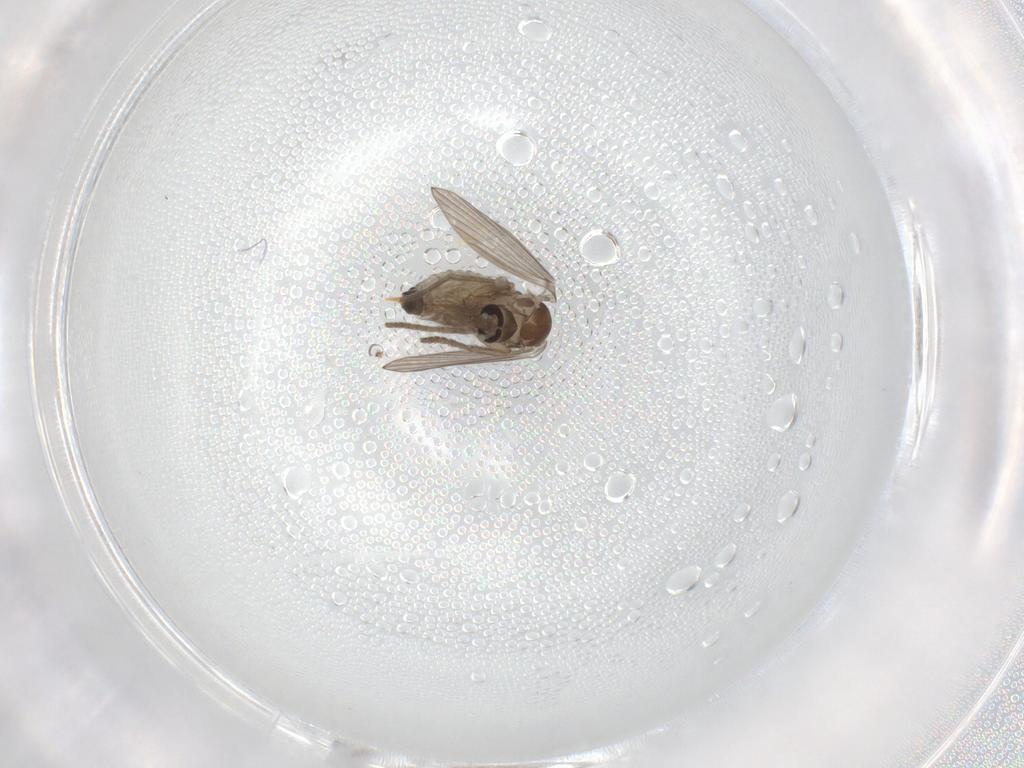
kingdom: Animalia
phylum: Arthropoda
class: Insecta
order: Diptera
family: Psychodidae
